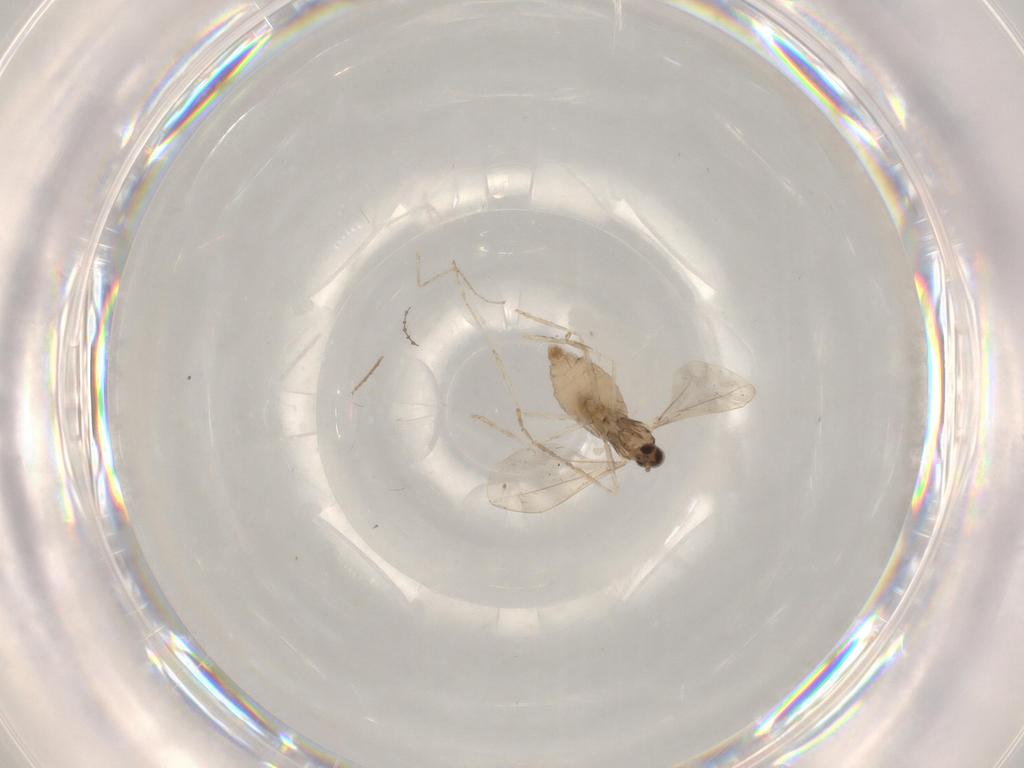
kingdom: Animalia
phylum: Arthropoda
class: Insecta
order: Diptera
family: Cecidomyiidae
